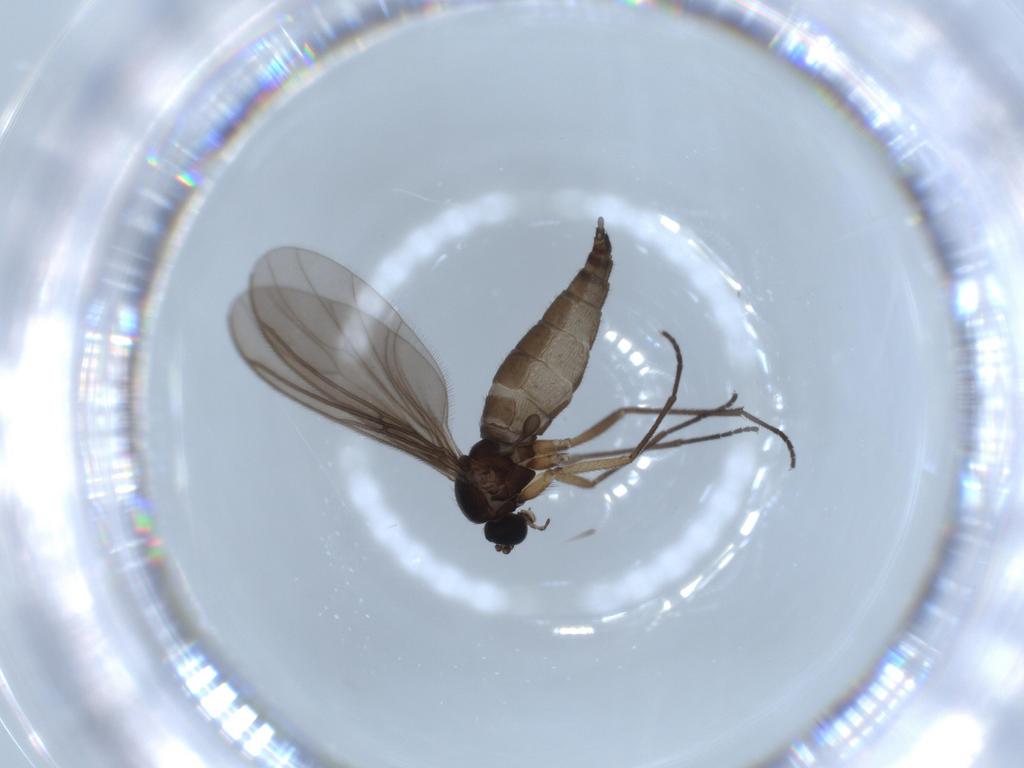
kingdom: Animalia
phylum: Arthropoda
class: Insecta
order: Diptera
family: Sciaridae
